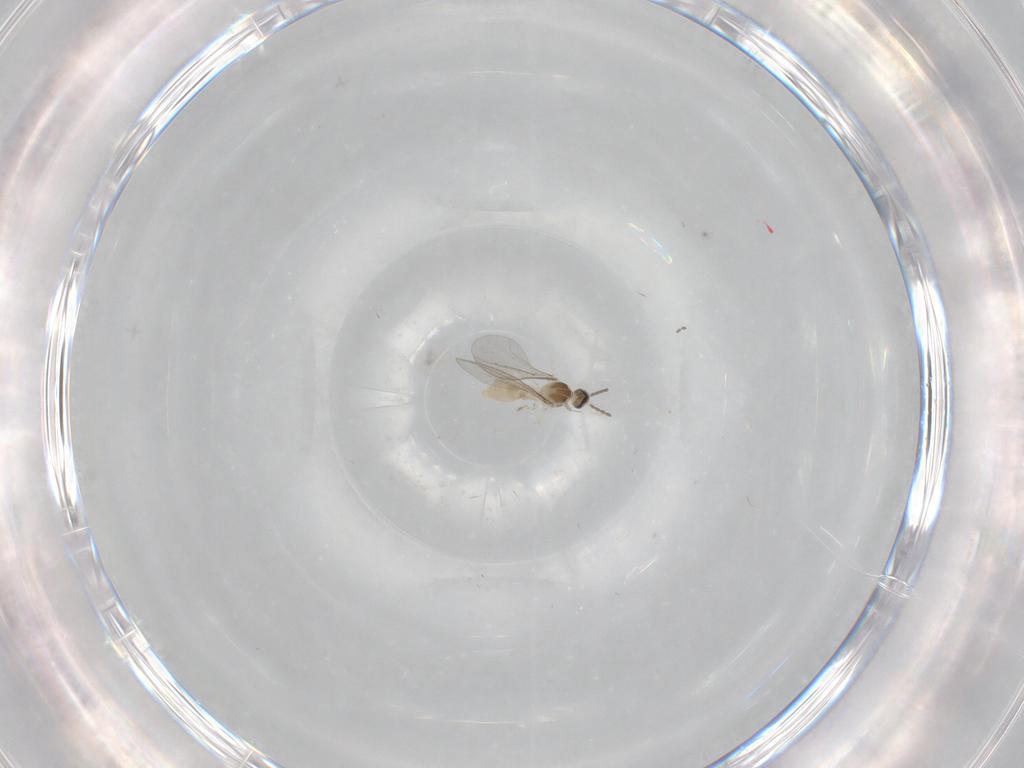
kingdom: Animalia
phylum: Arthropoda
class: Insecta
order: Diptera
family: Cecidomyiidae
